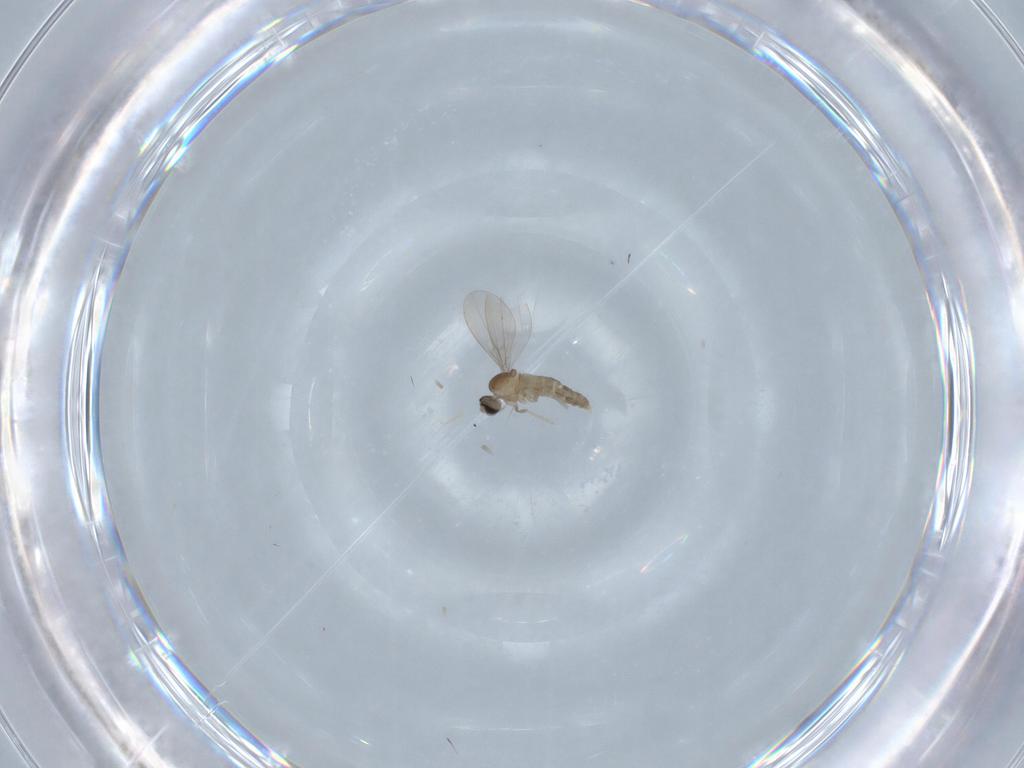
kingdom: Animalia
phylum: Arthropoda
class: Insecta
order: Diptera
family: Cecidomyiidae
